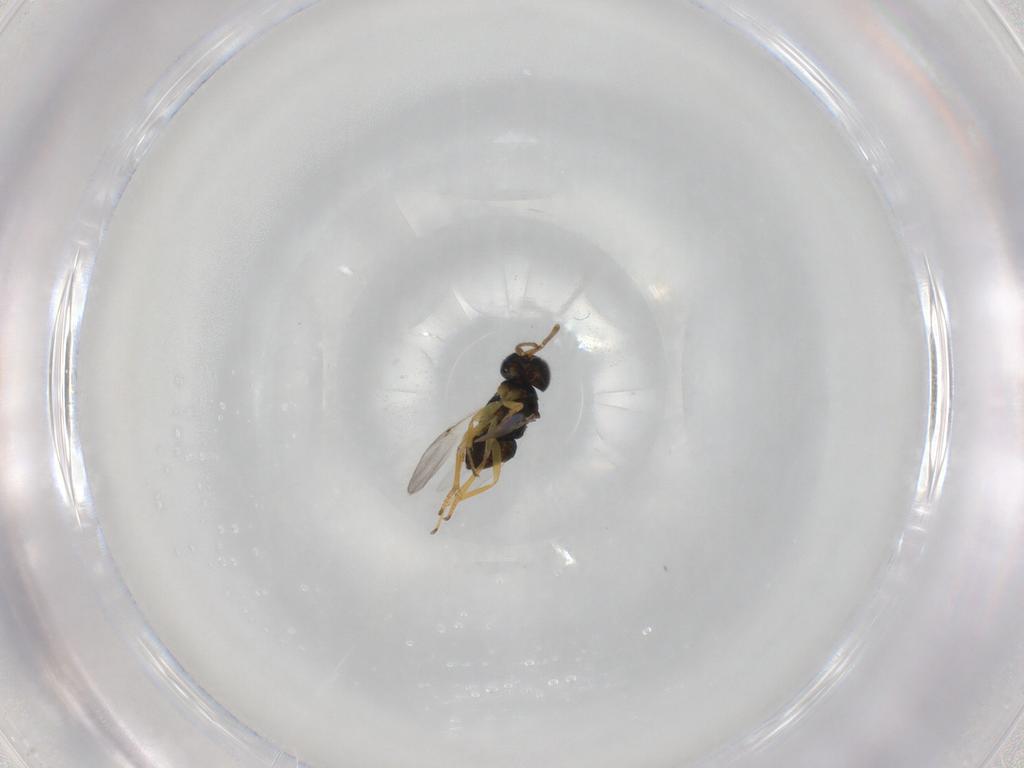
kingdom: Animalia
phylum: Arthropoda
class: Insecta
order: Hymenoptera
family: Encyrtidae
